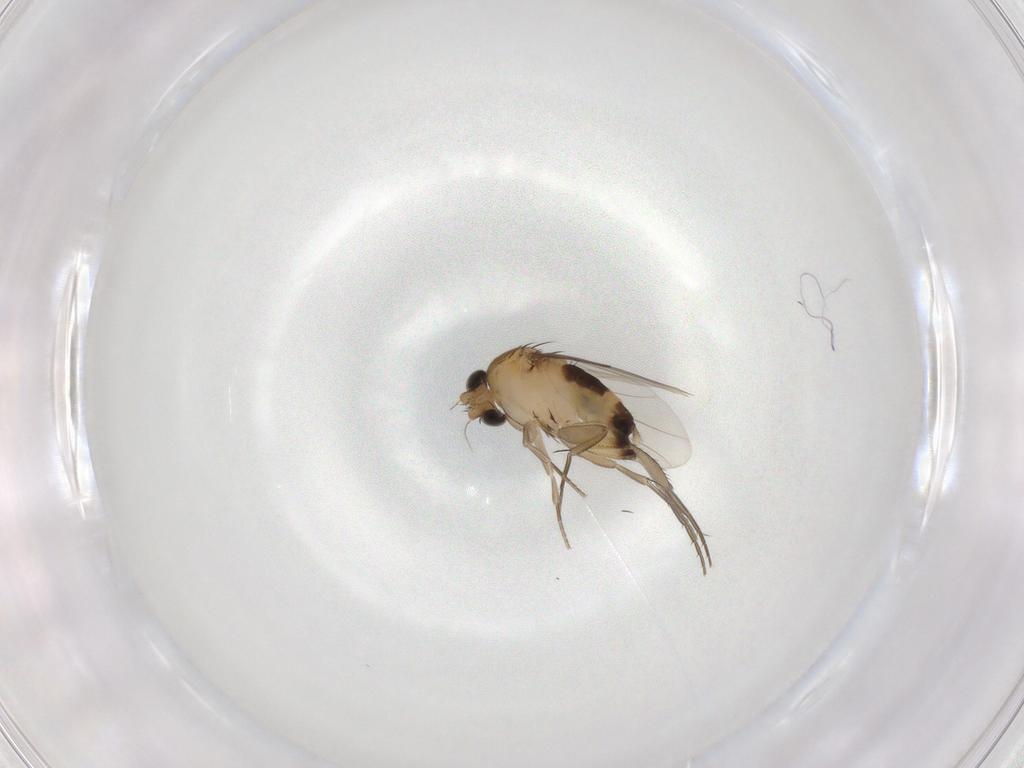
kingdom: Animalia
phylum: Arthropoda
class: Insecta
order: Diptera
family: Phoridae
